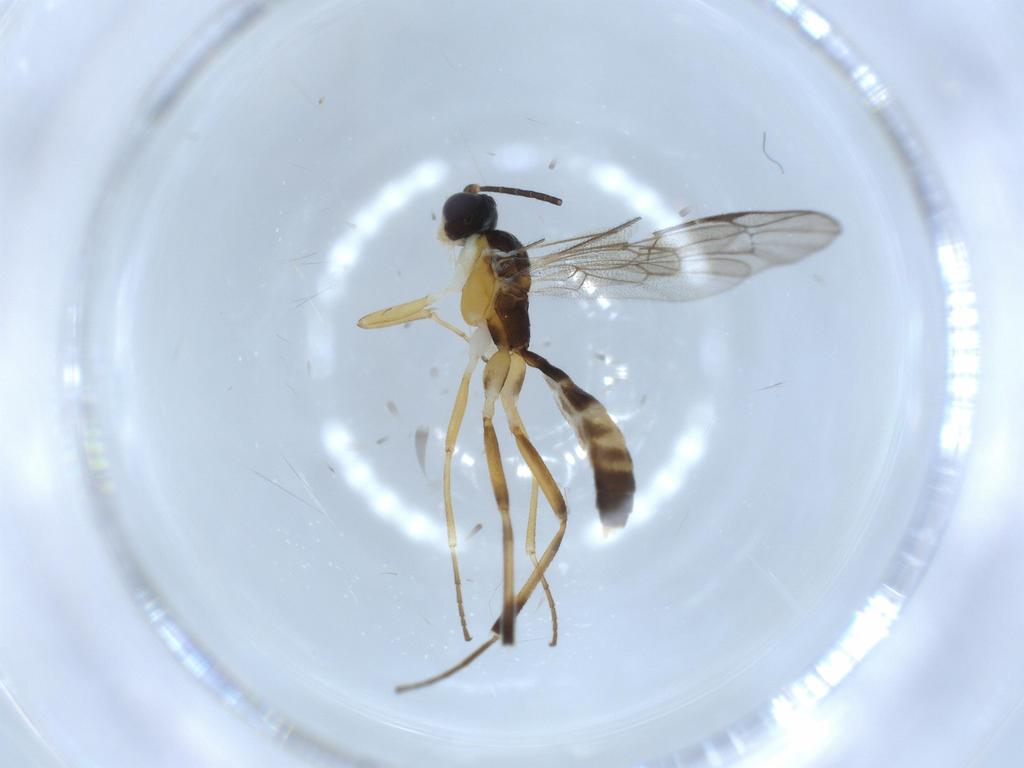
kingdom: Animalia
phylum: Arthropoda
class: Insecta
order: Hymenoptera
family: Ichneumonidae
